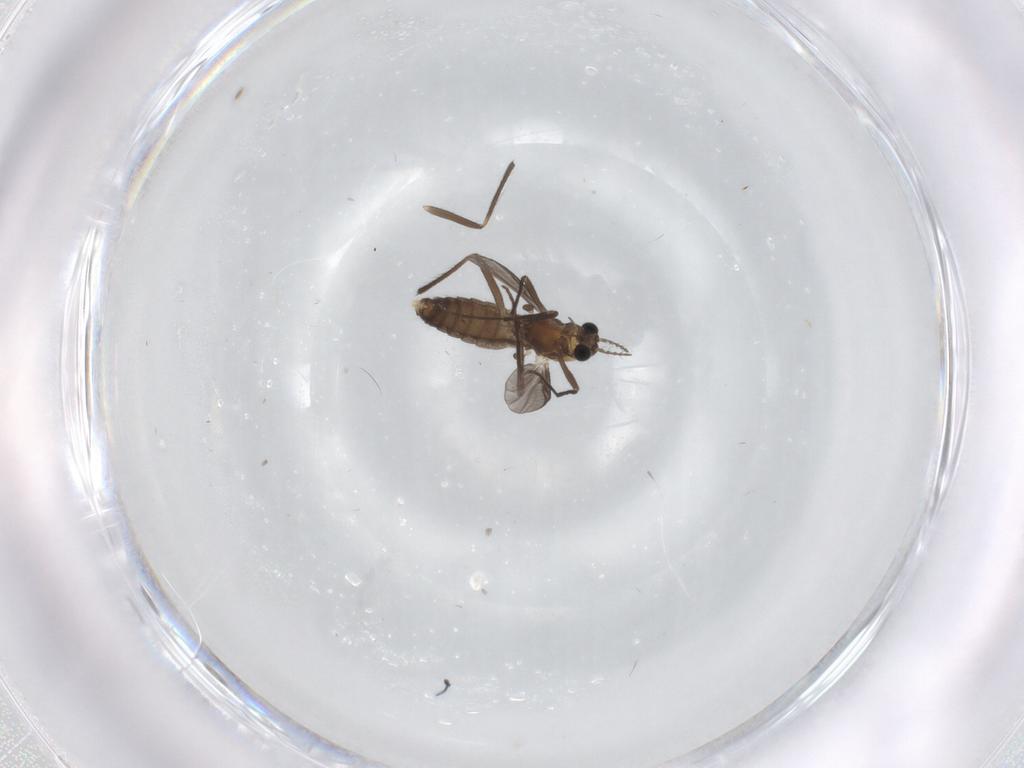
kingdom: Animalia
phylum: Arthropoda
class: Insecta
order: Diptera
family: Chironomidae
